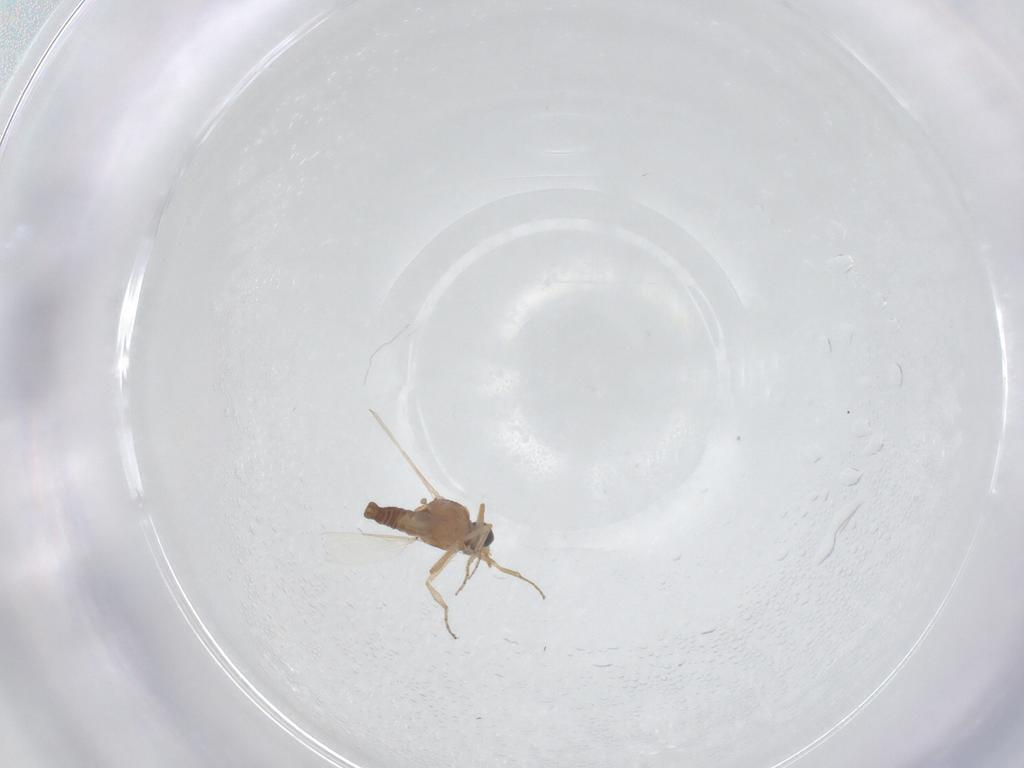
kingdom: Animalia
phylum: Arthropoda
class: Insecta
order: Diptera
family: Ceratopogonidae
